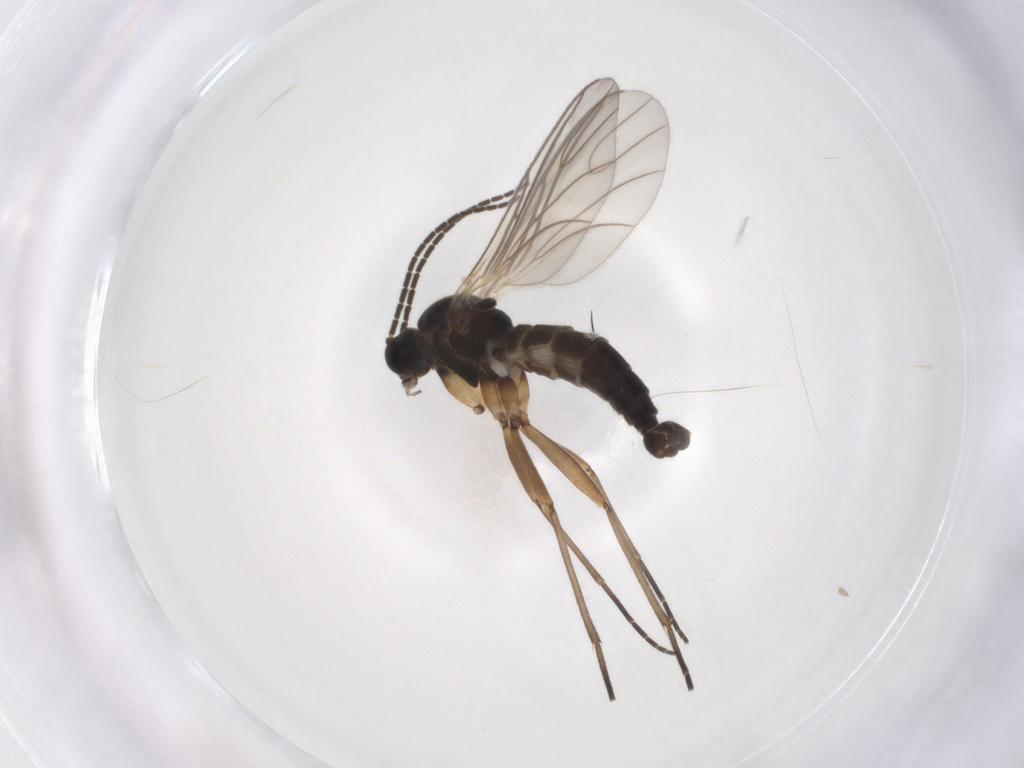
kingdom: Animalia
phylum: Arthropoda
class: Insecta
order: Diptera
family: Sciaridae
